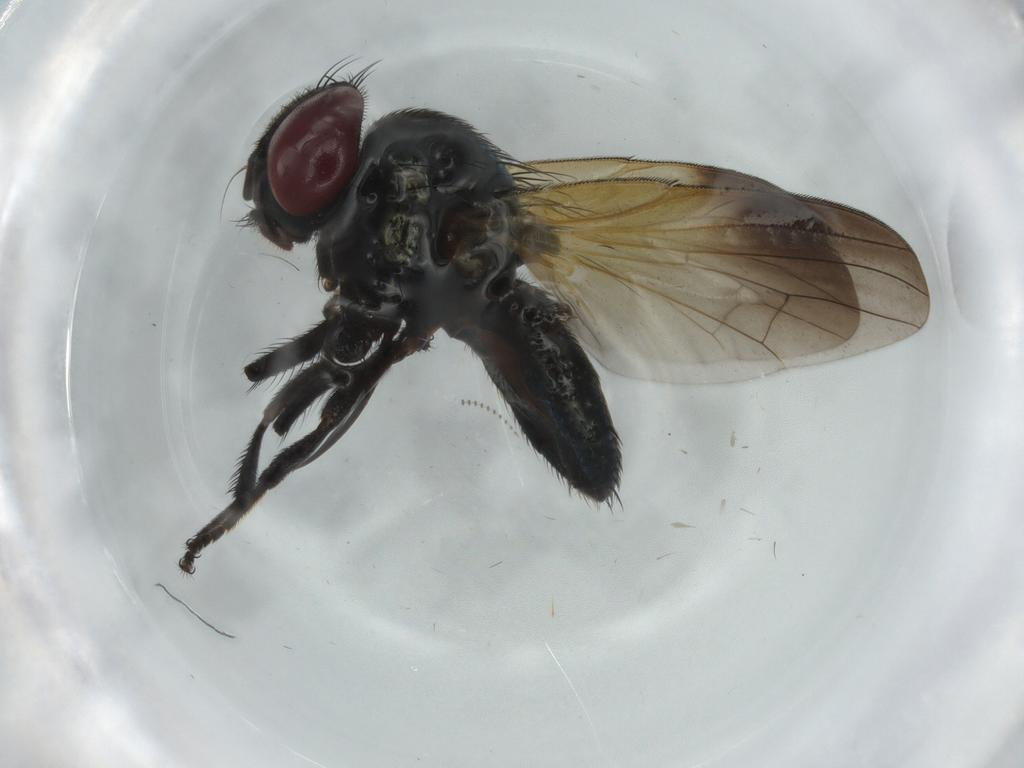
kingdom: Animalia
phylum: Arthropoda
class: Insecta
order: Diptera
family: Psychodidae
